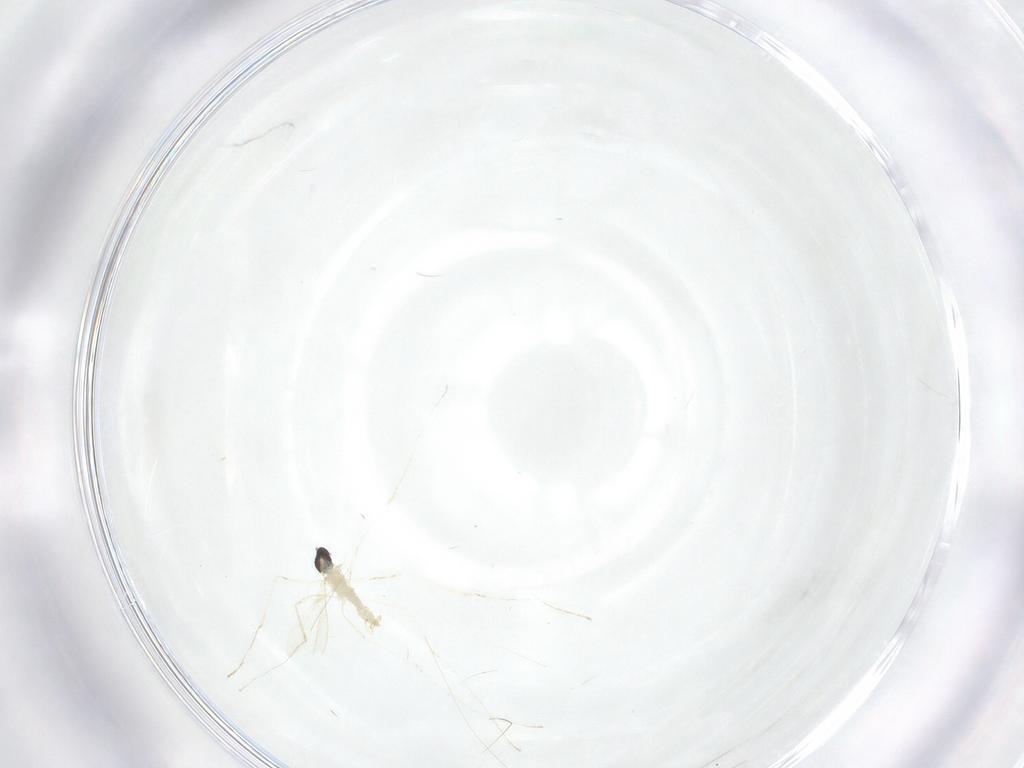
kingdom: Animalia
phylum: Arthropoda
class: Insecta
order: Diptera
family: Cecidomyiidae
